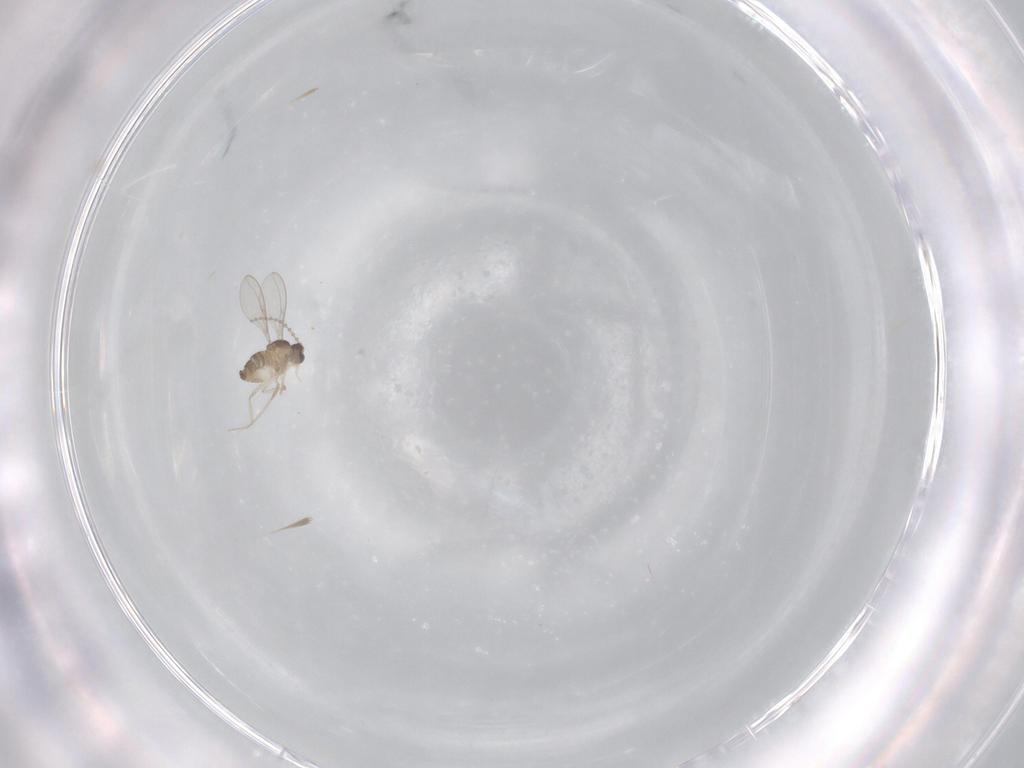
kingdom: Animalia
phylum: Arthropoda
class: Insecta
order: Diptera
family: Cecidomyiidae
